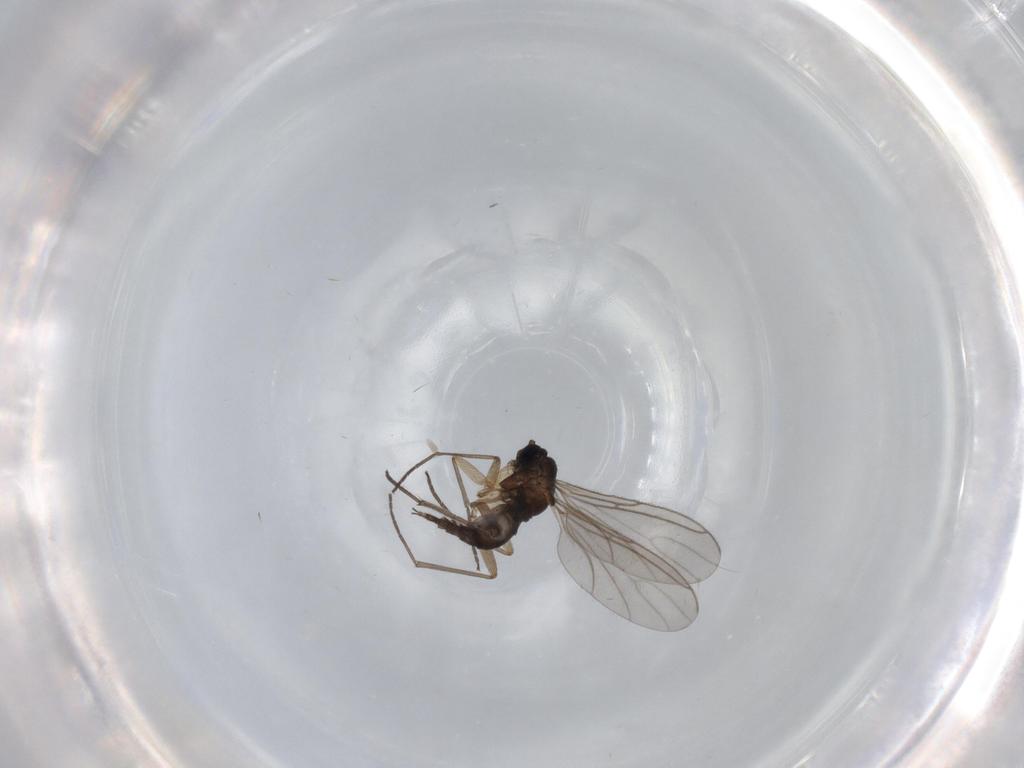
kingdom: Animalia
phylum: Arthropoda
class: Insecta
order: Diptera
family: Sciaridae
